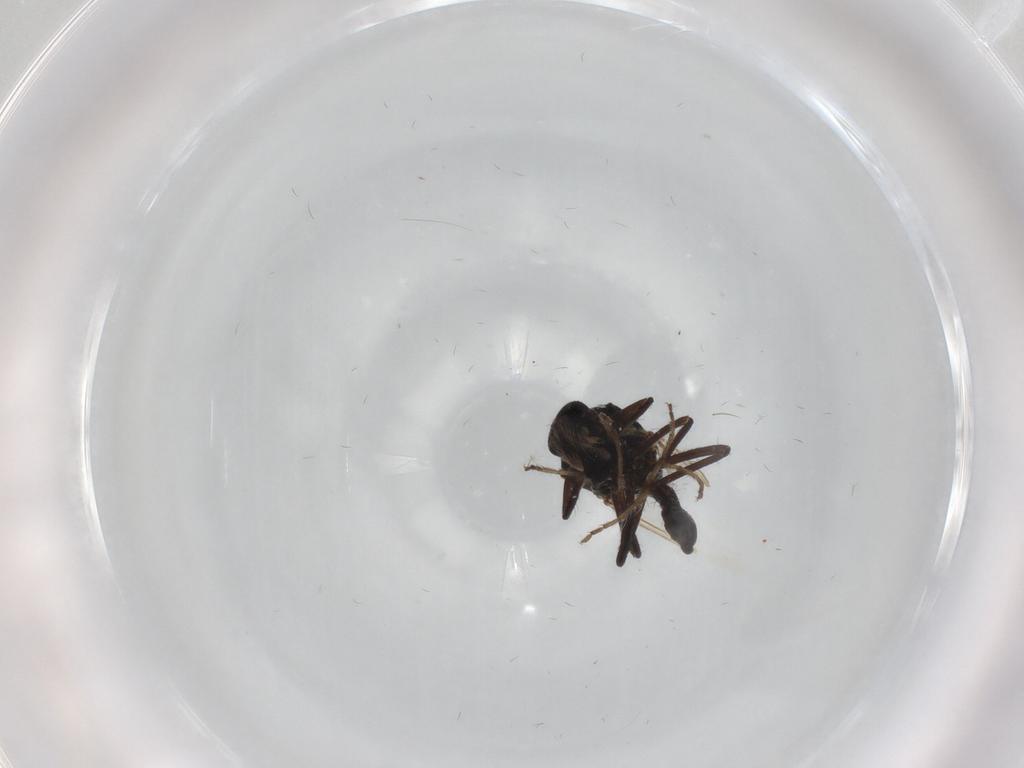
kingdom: Animalia
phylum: Arthropoda
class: Insecta
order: Diptera
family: Ceratopogonidae
